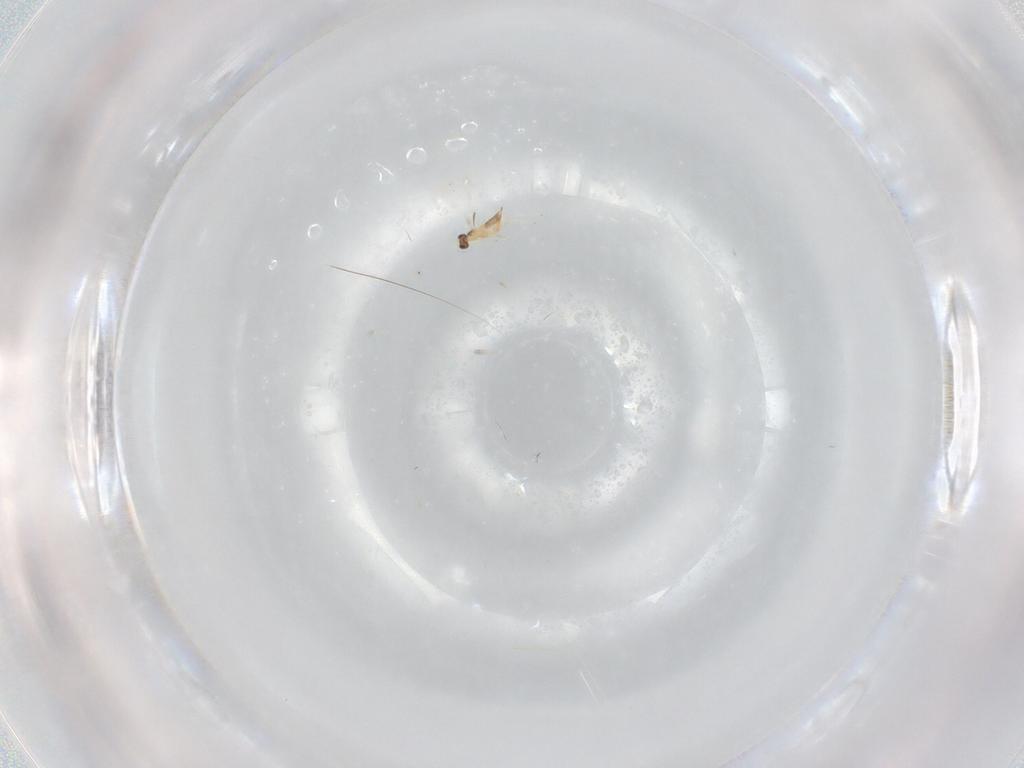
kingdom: Animalia
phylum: Arthropoda
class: Insecta
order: Hymenoptera
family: Mymaridae
